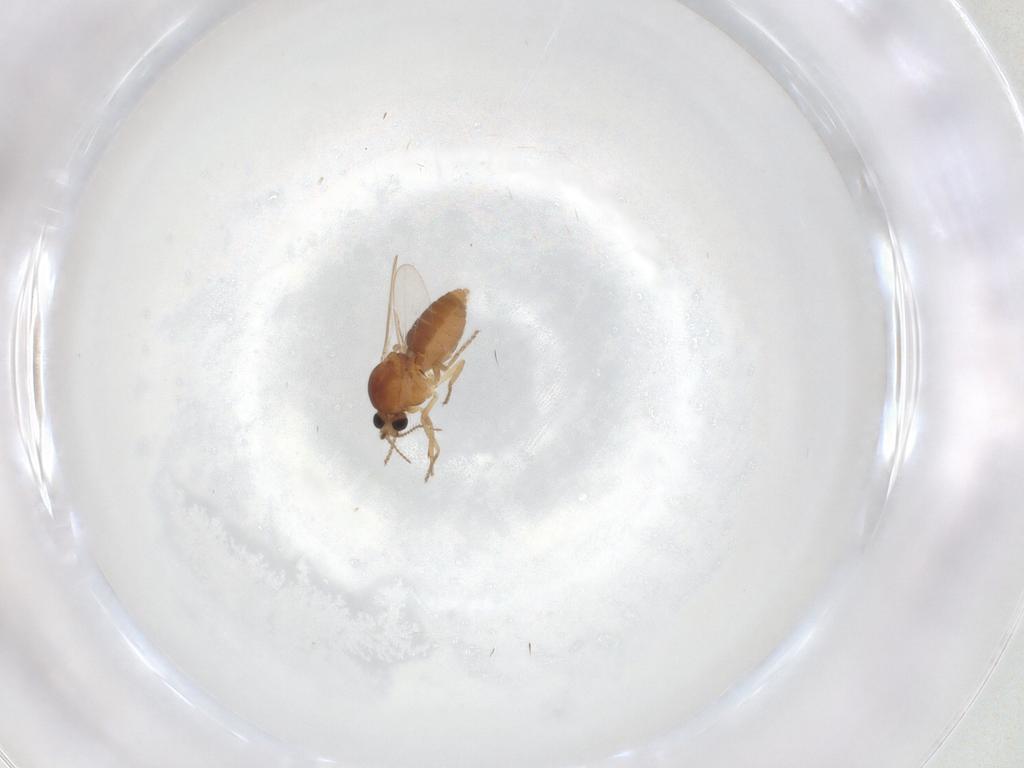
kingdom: Animalia
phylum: Arthropoda
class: Insecta
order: Diptera
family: Ceratopogonidae
